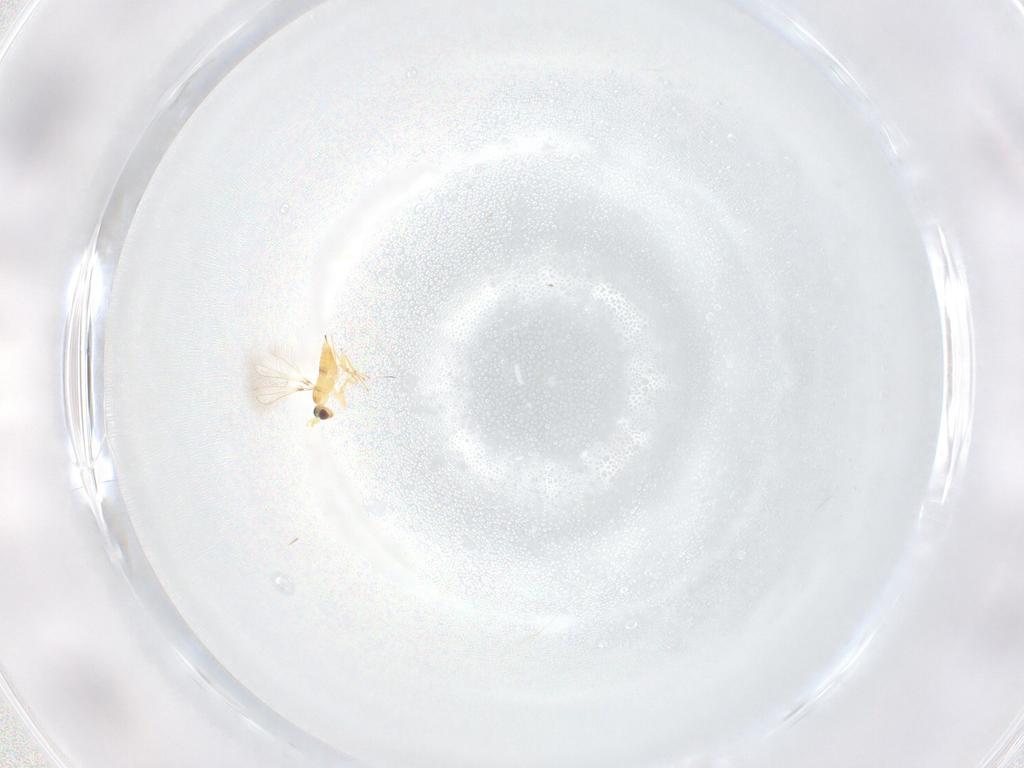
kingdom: Animalia
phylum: Arthropoda
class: Insecta
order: Hymenoptera
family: Mymaridae
